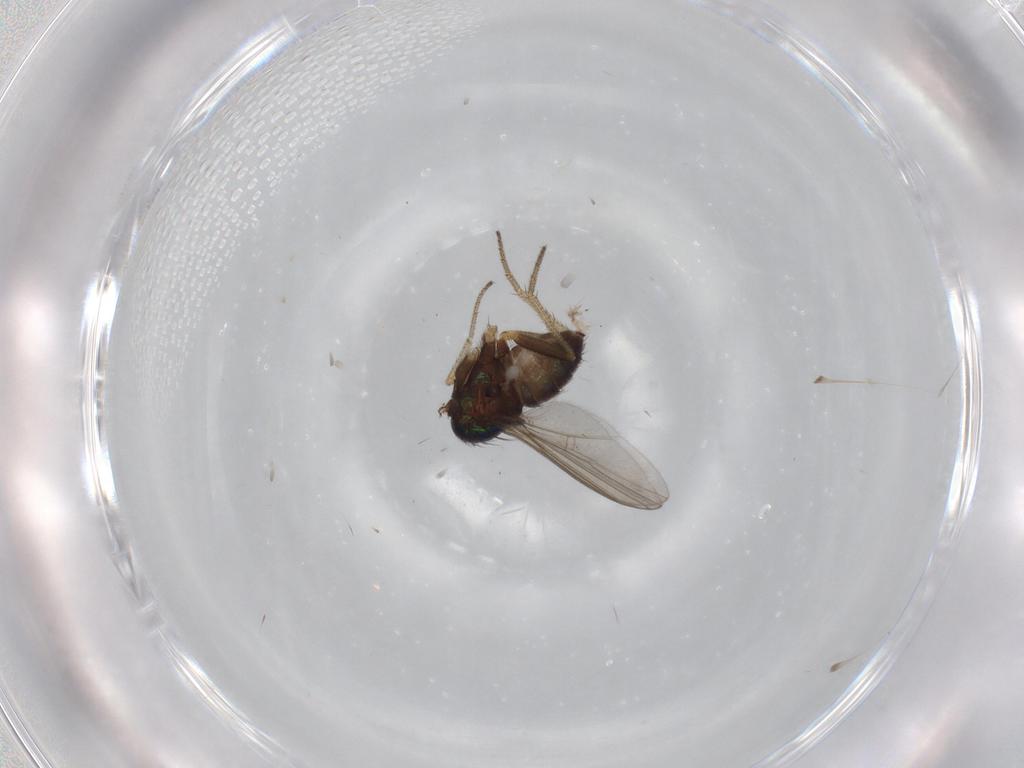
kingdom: Animalia
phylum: Arthropoda
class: Insecta
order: Diptera
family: Dolichopodidae
